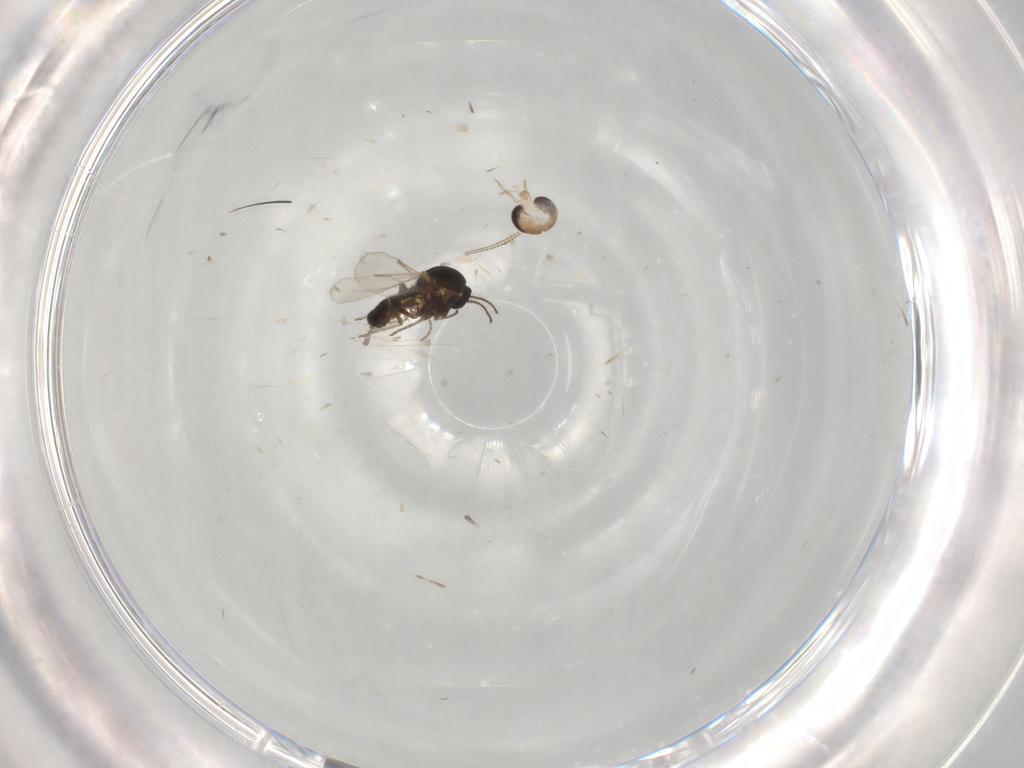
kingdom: Animalia
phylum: Arthropoda
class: Insecta
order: Diptera
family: Ceratopogonidae
